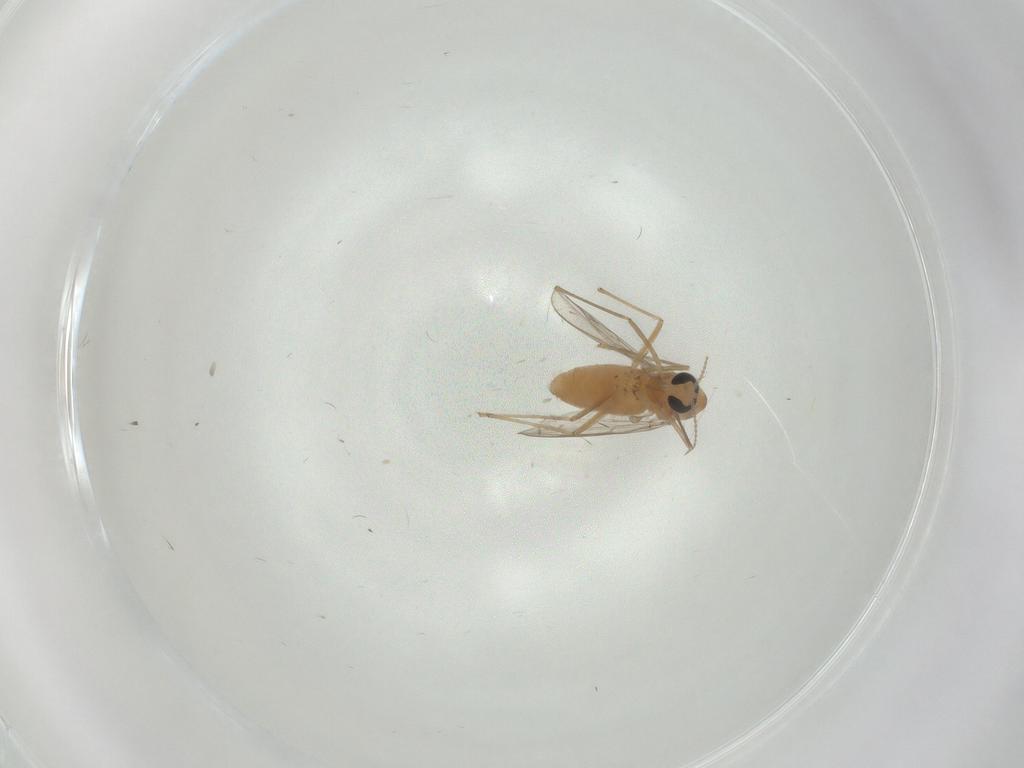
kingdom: Animalia
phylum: Arthropoda
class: Insecta
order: Diptera
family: Chironomidae
